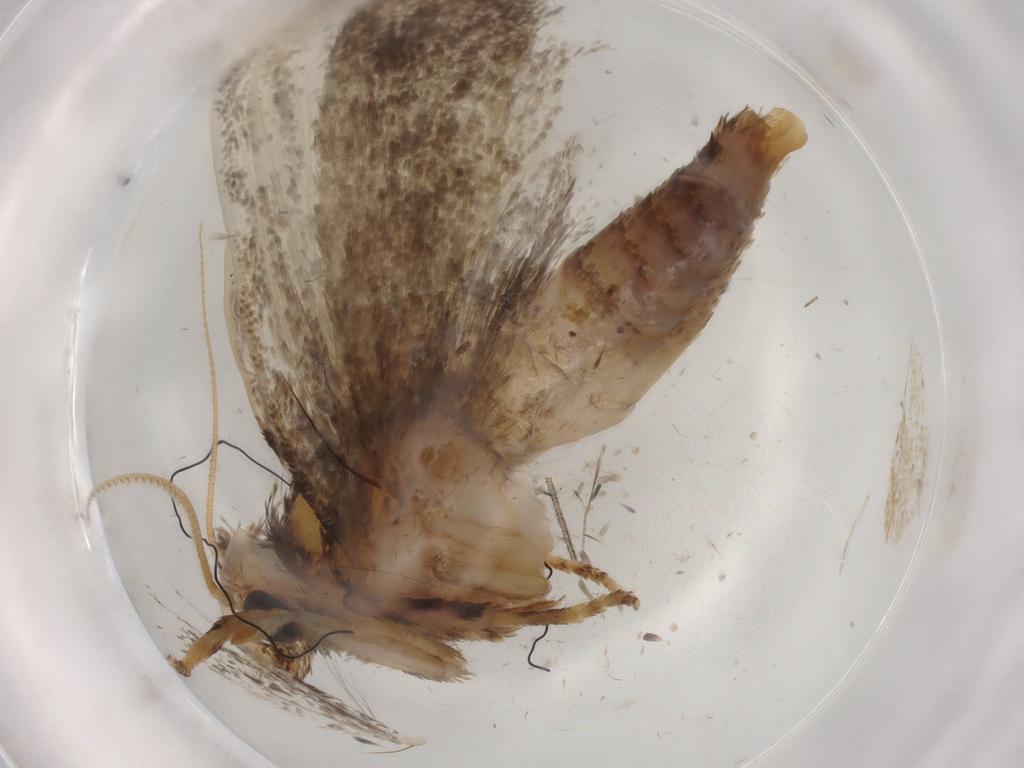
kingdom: Animalia
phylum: Arthropoda
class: Insecta
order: Lepidoptera
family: Tineidae
